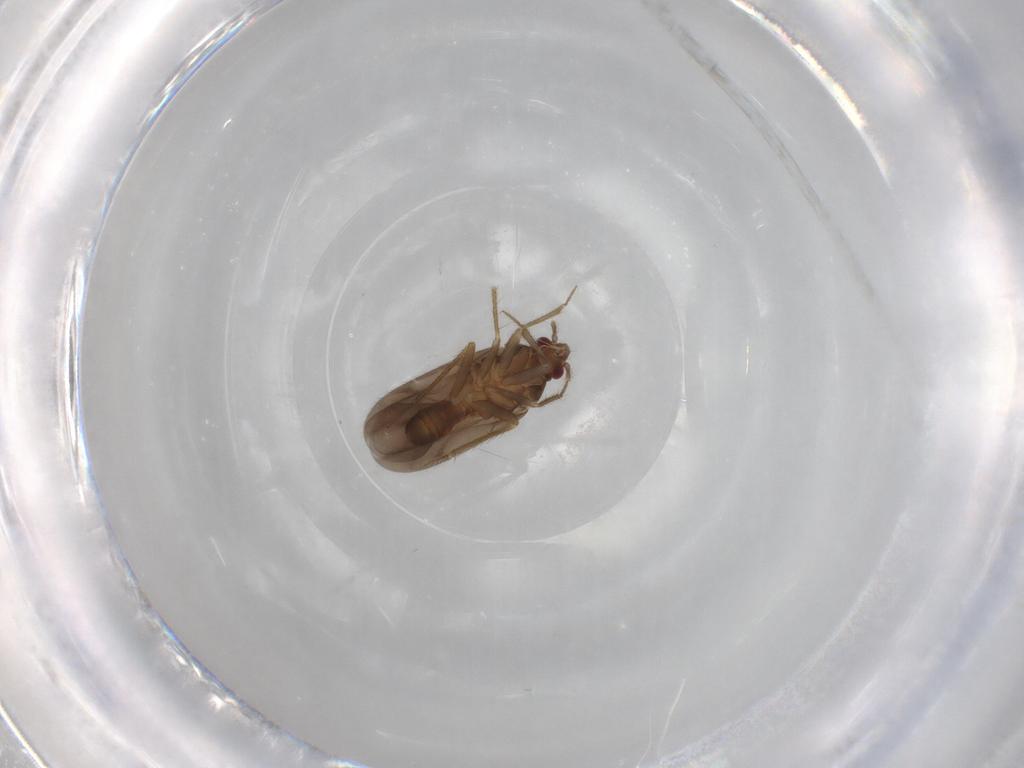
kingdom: Animalia
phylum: Arthropoda
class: Insecta
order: Hemiptera
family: Ceratocombidae
